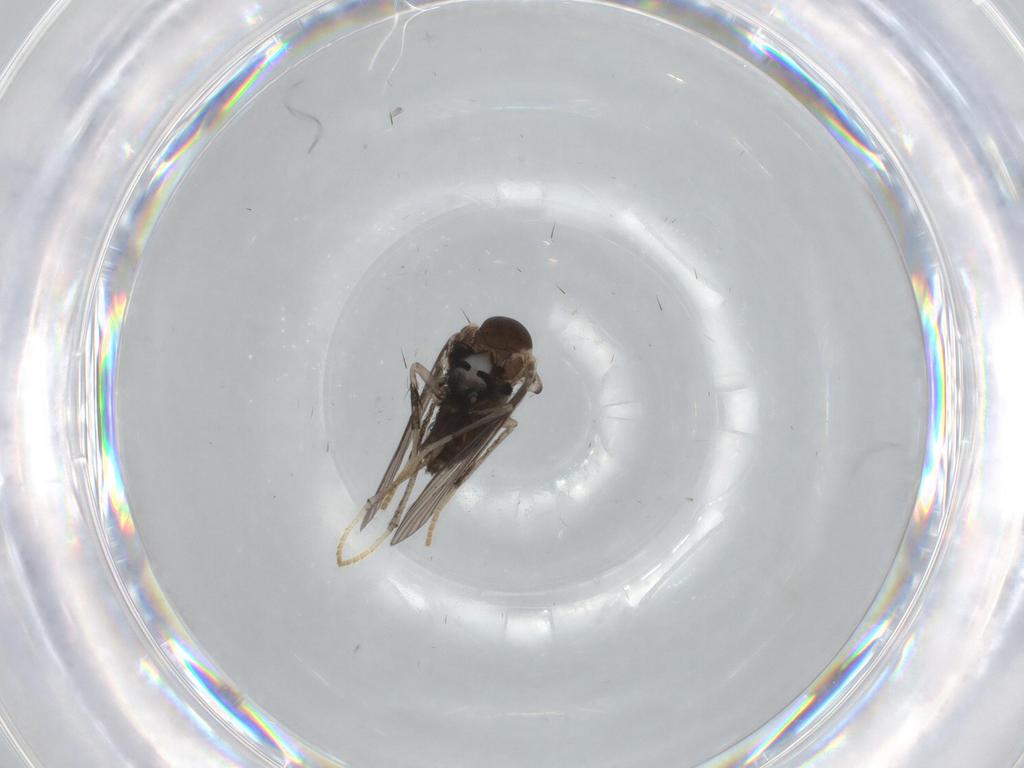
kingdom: Animalia
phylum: Arthropoda
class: Insecta
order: Diptera
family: Psychodidae
